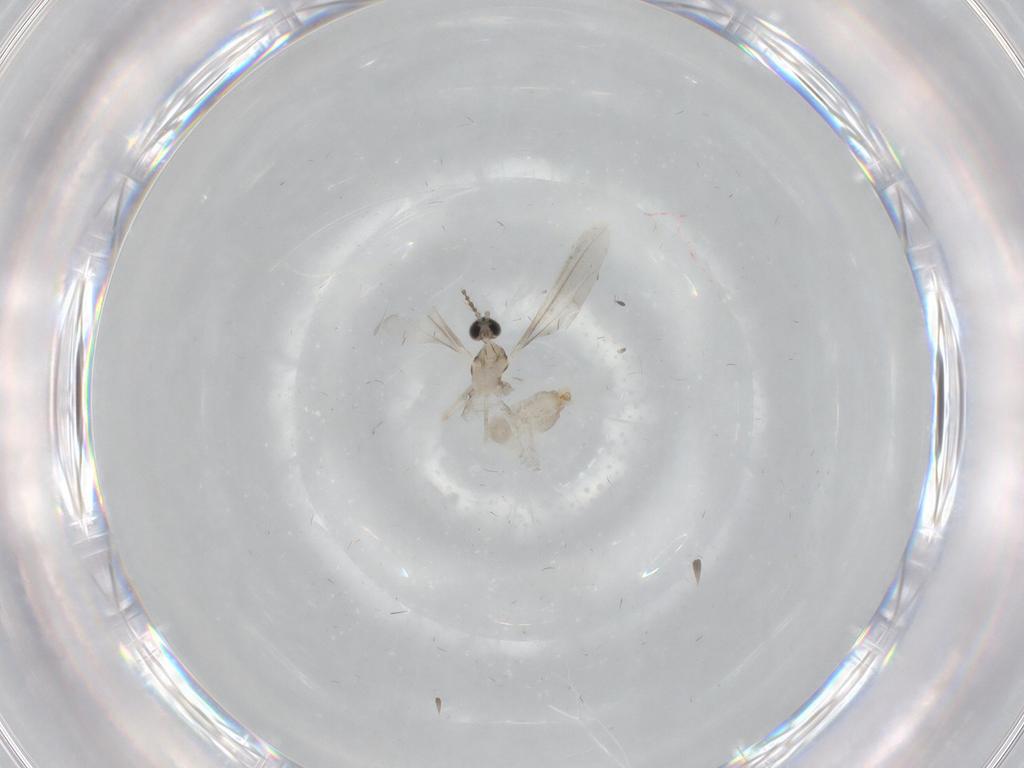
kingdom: Animalia
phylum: Arthropoda
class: Insecta
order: Diptera
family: Cecidomyiidae
